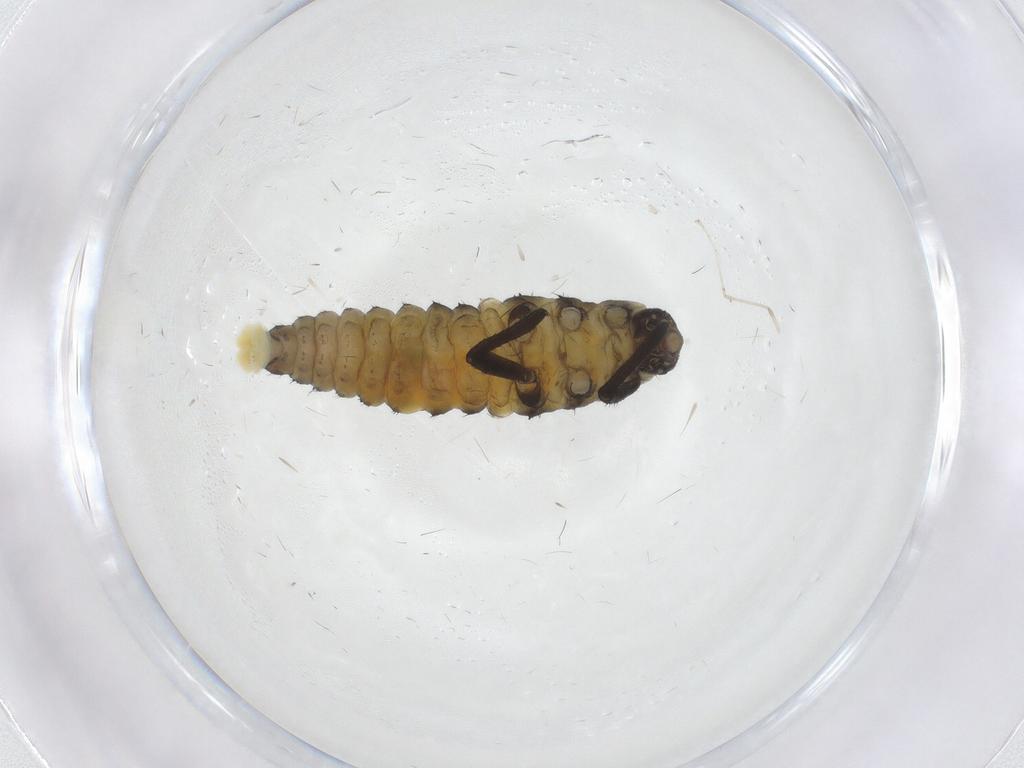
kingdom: Animalia
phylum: Arthropoda
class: Insecta
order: Coleoptera
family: Coccinellidae
